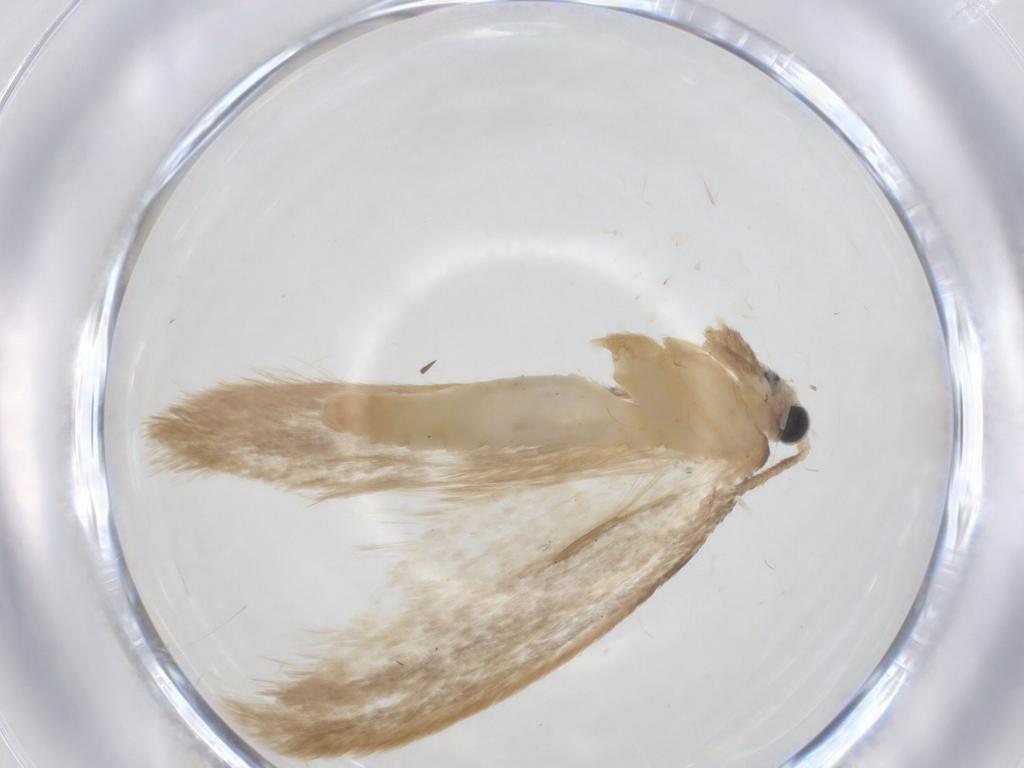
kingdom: Animalia
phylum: Arthropoda
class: Insecta
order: Lepidoptera
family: Tineidae
